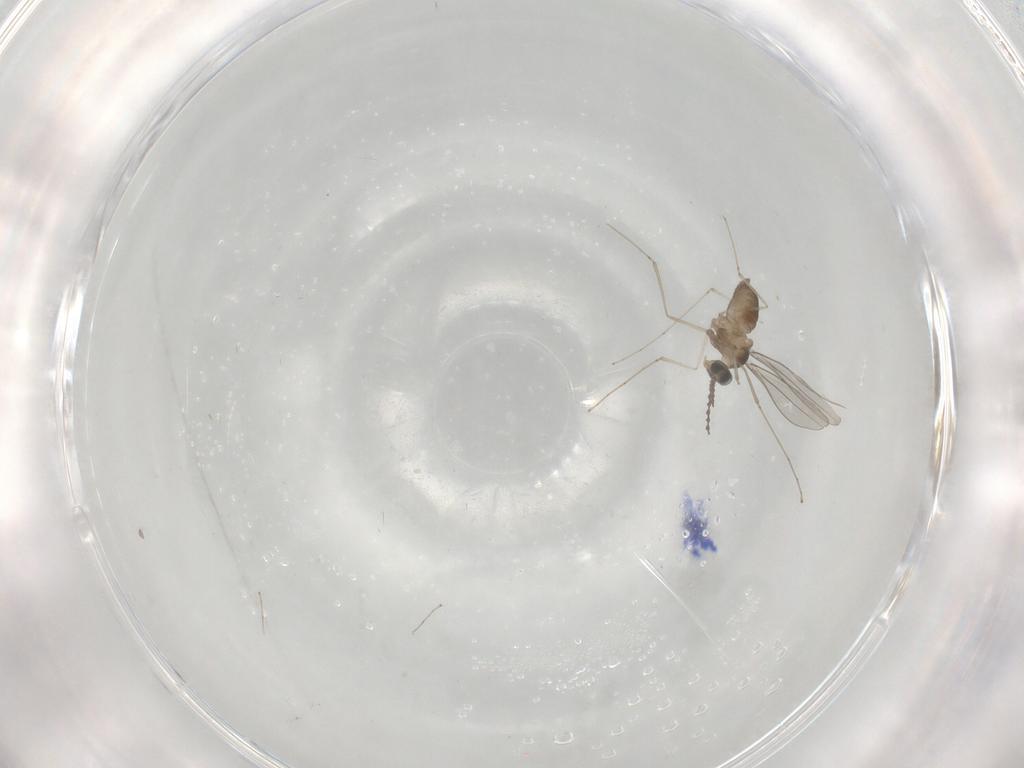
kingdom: Animalia
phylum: Arthropoda
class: Insecta
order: Diptera
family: Cecidomyiidae
